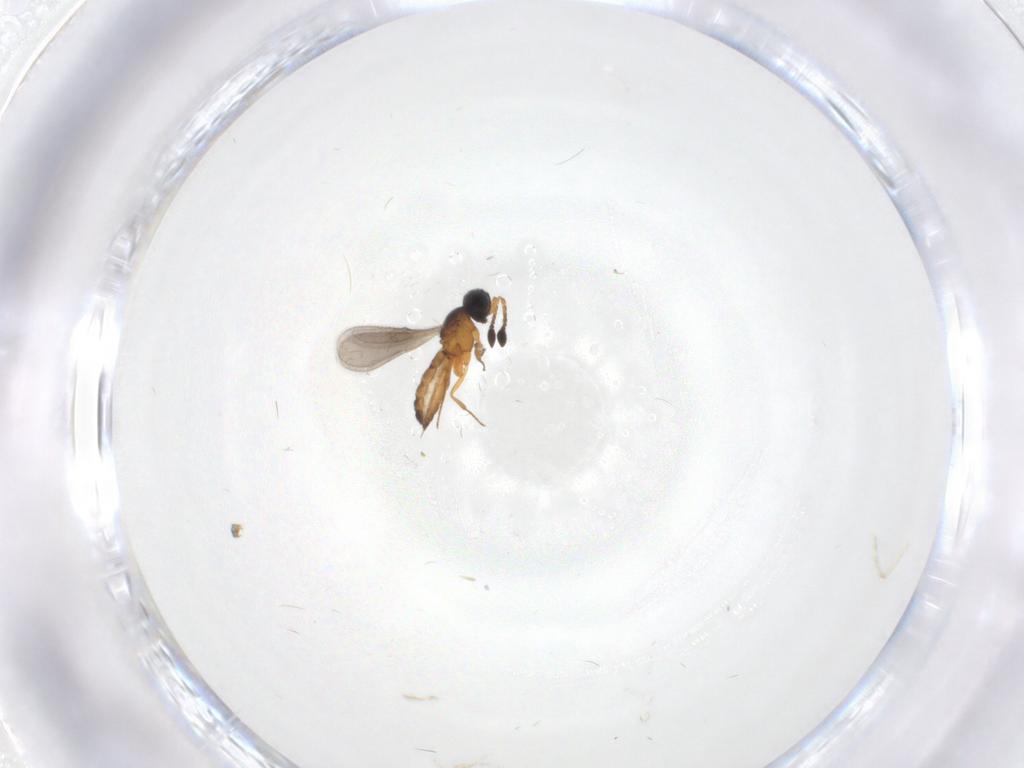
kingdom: Animalia
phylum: Arthropoda
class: Insecta
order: Hymenoptera
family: Scelionidae
